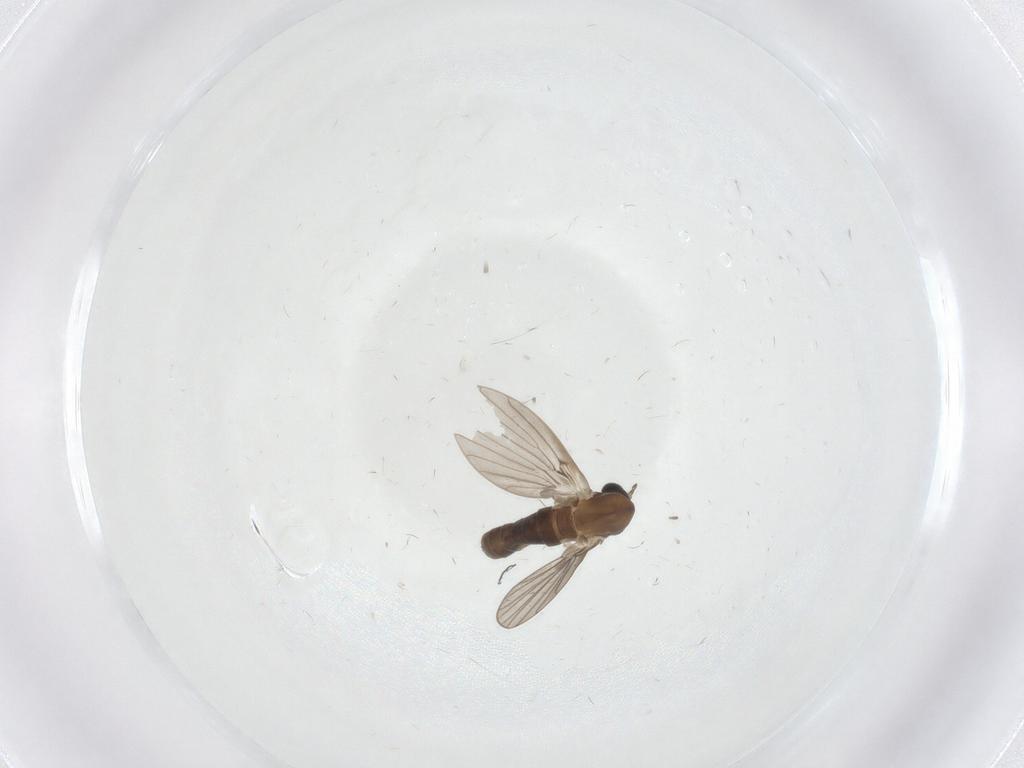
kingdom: Animalia
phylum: Arthropoda
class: Insecta
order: Diptera
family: Psychodidae
